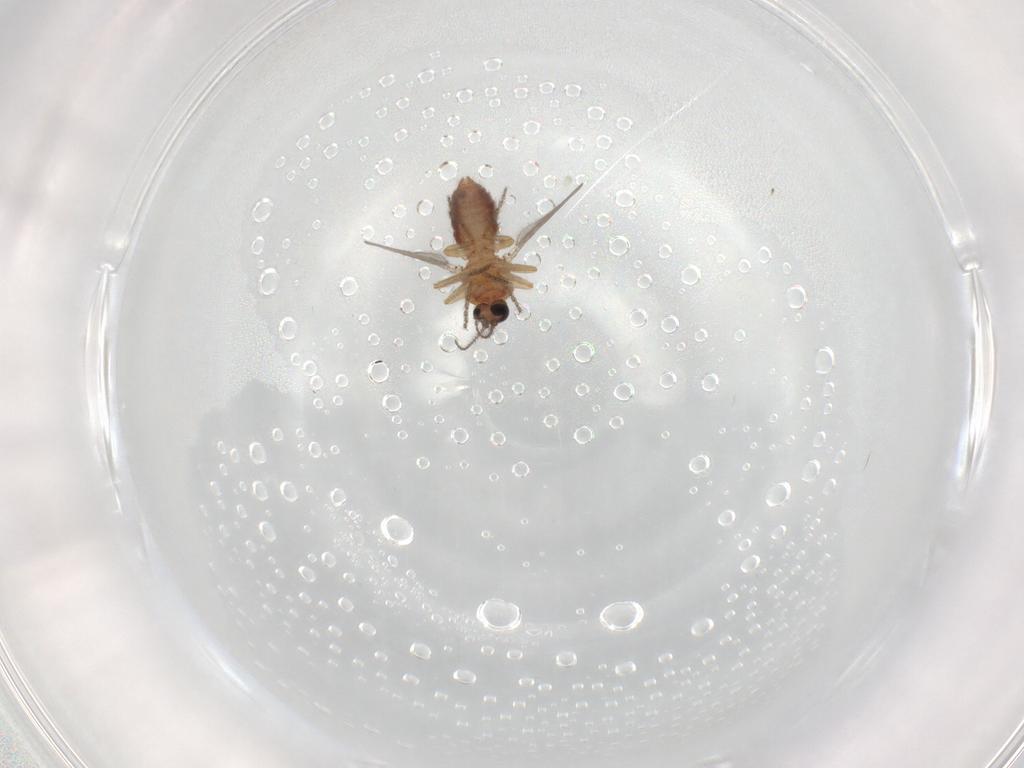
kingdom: Animalia
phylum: Arthropoda
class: Insecta
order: Diptera
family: Ceratopogonidae
